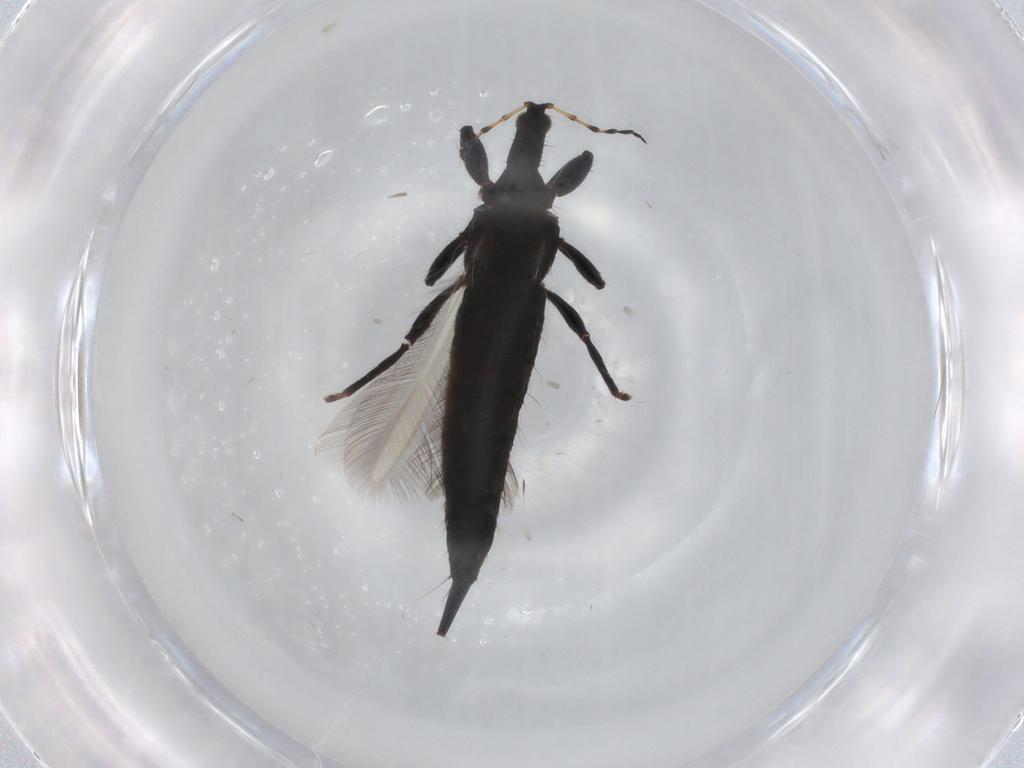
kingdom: Animalia
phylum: Arthropoda
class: Insecta
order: Thysanoptera
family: Phlaeothripidae
